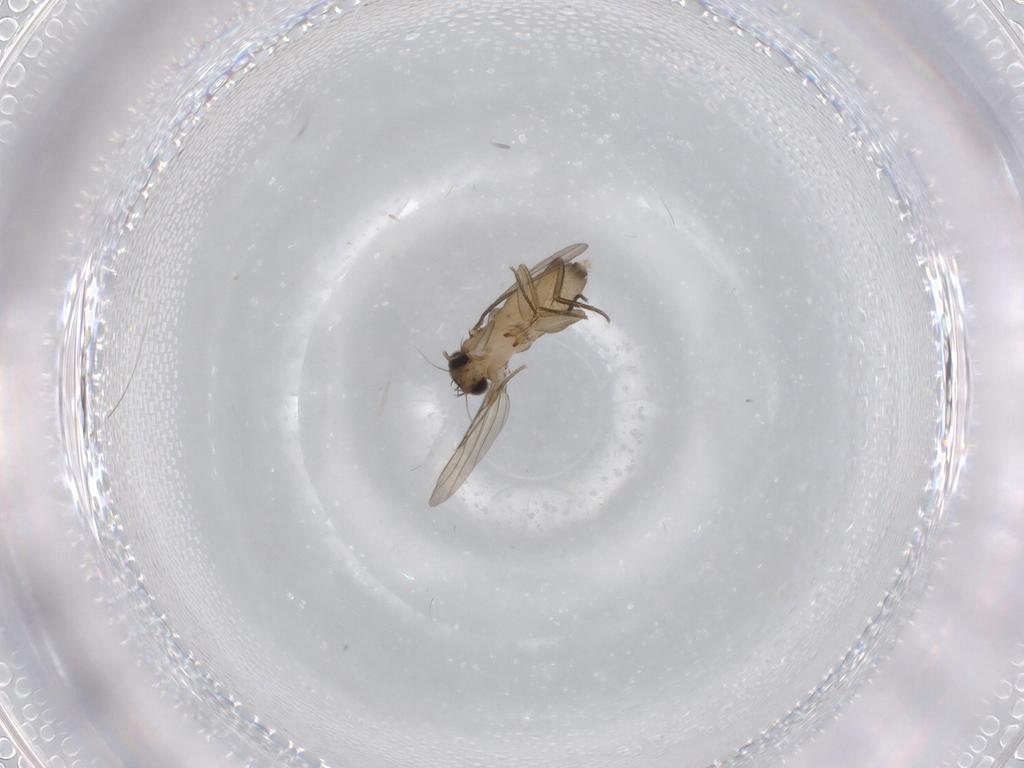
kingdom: Animalia
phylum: Arthropoda
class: Insecta
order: Diptera
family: Phoridae
